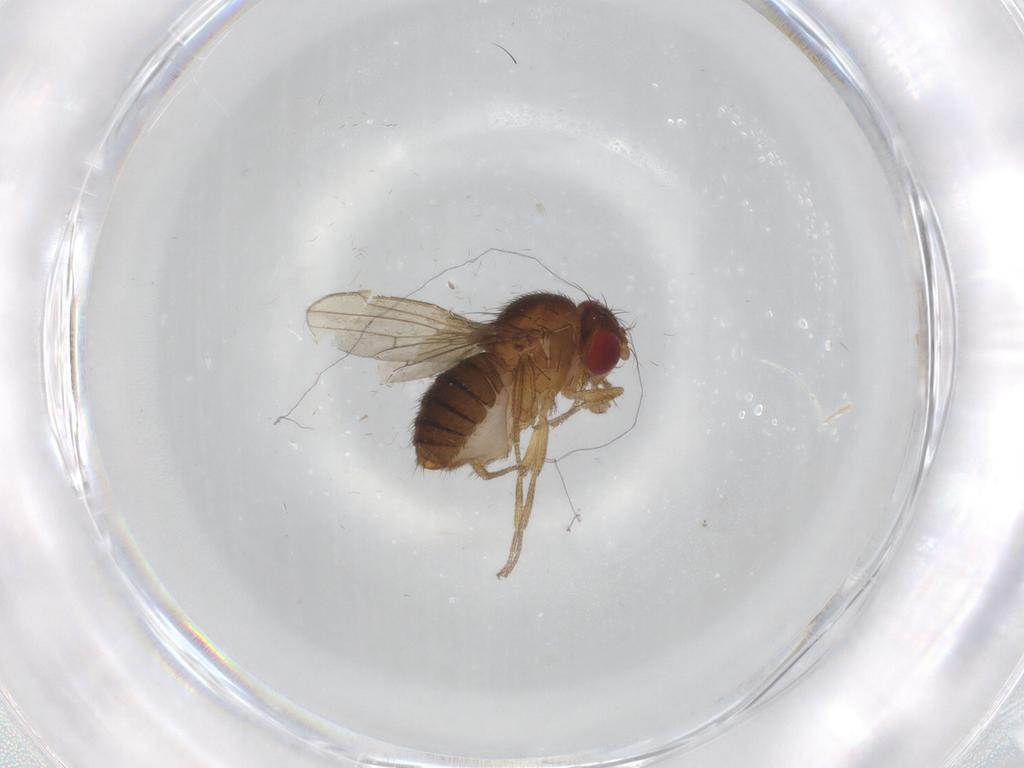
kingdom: Animalia
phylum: Arthropoda
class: Insecta
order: Diptera
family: Drosophilidae
